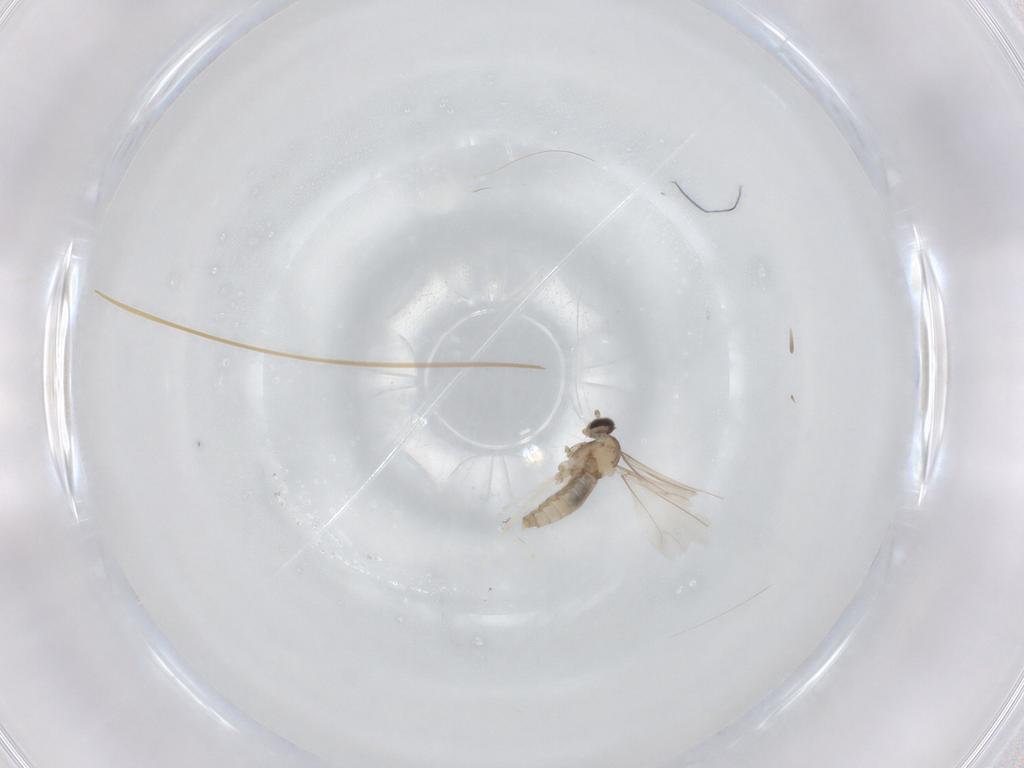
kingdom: Animalia
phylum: Arthropoda
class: Insecta
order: Diptera
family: Cecidomyiidae
